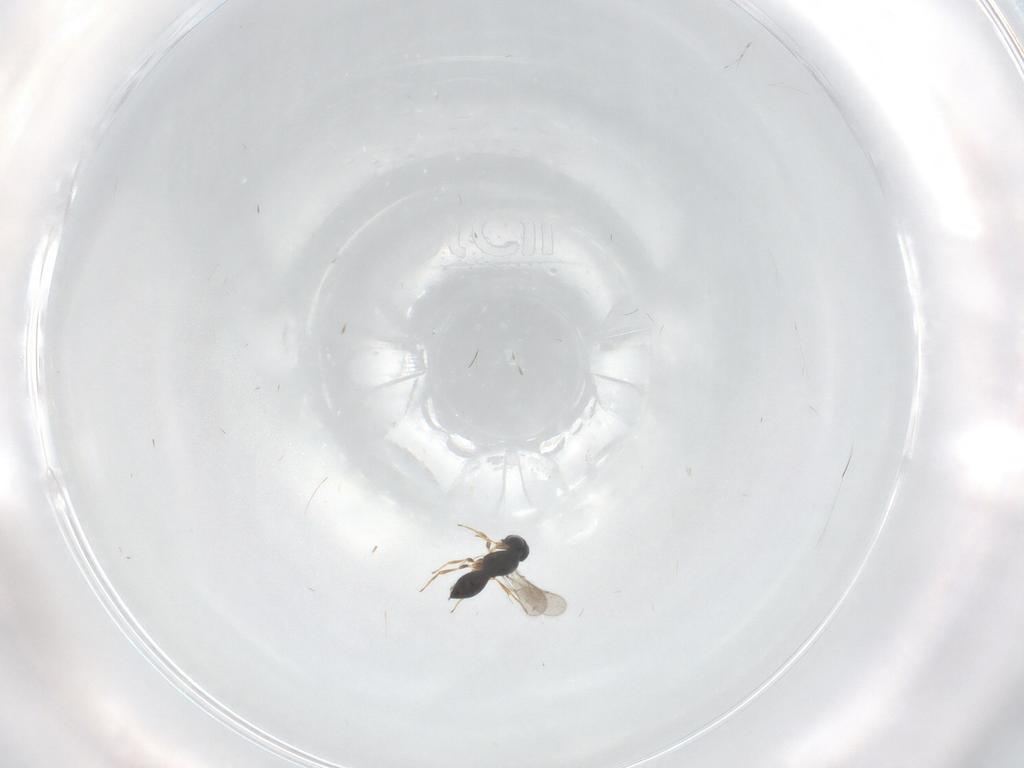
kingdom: Animalia
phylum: Arthropoda
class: Insecta
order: Hymenoptera
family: Scelionidae
